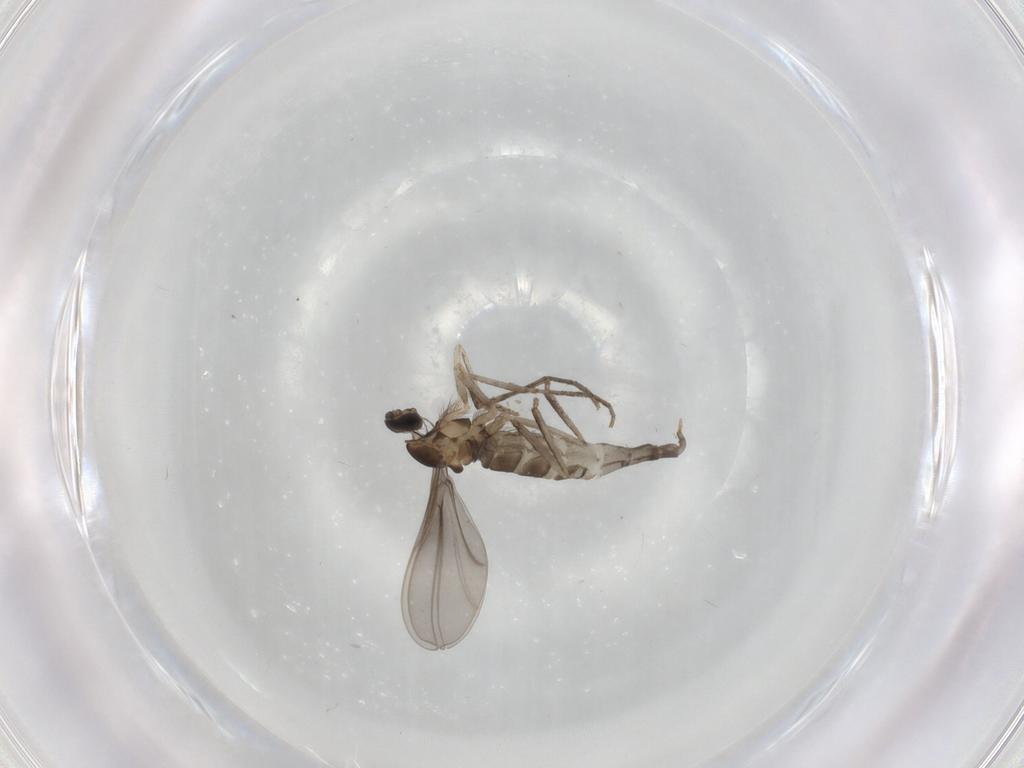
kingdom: Animalia
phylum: Arthropoda
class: Insecta
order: Diptera
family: Cecidomyiidae
